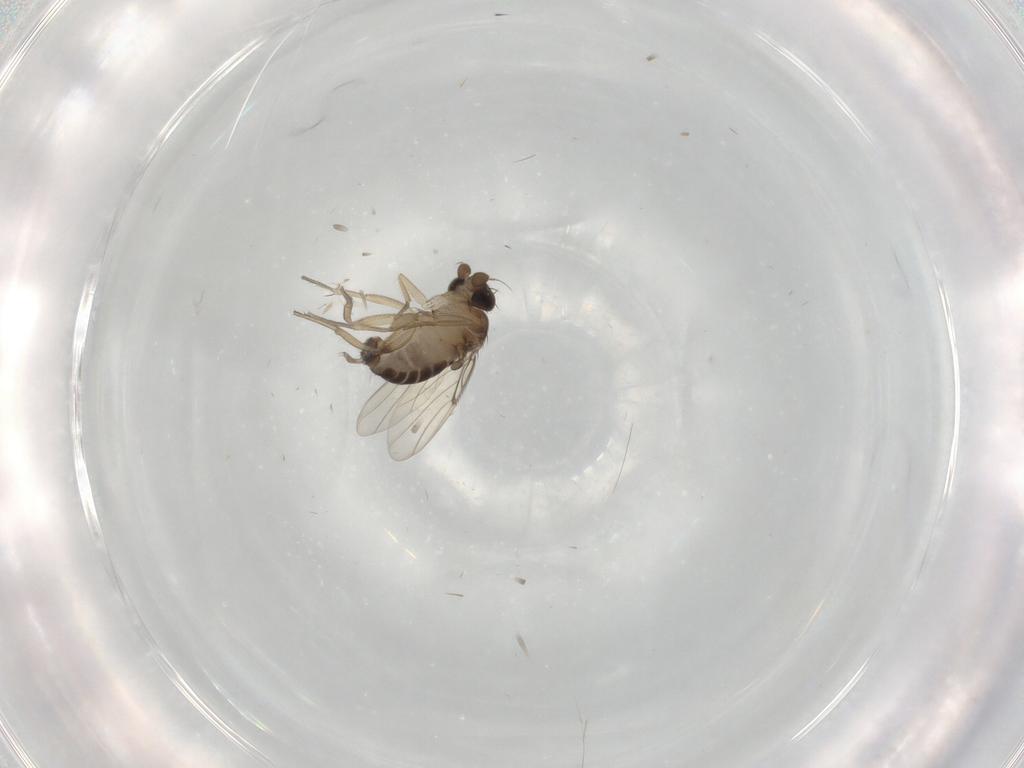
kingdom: Animalia
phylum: Arthropoda
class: Insecta
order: Diptera
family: Phoridae
